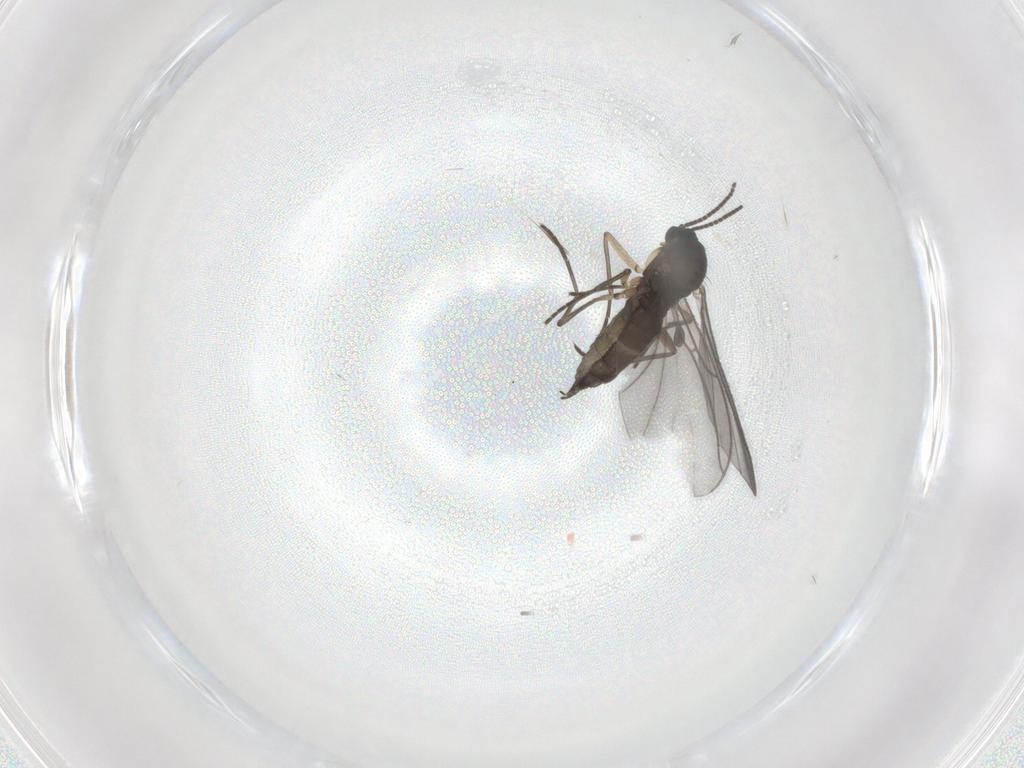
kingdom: Animalia
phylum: Arthropoda
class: Insecta
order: Diptera
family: Sciaridae
